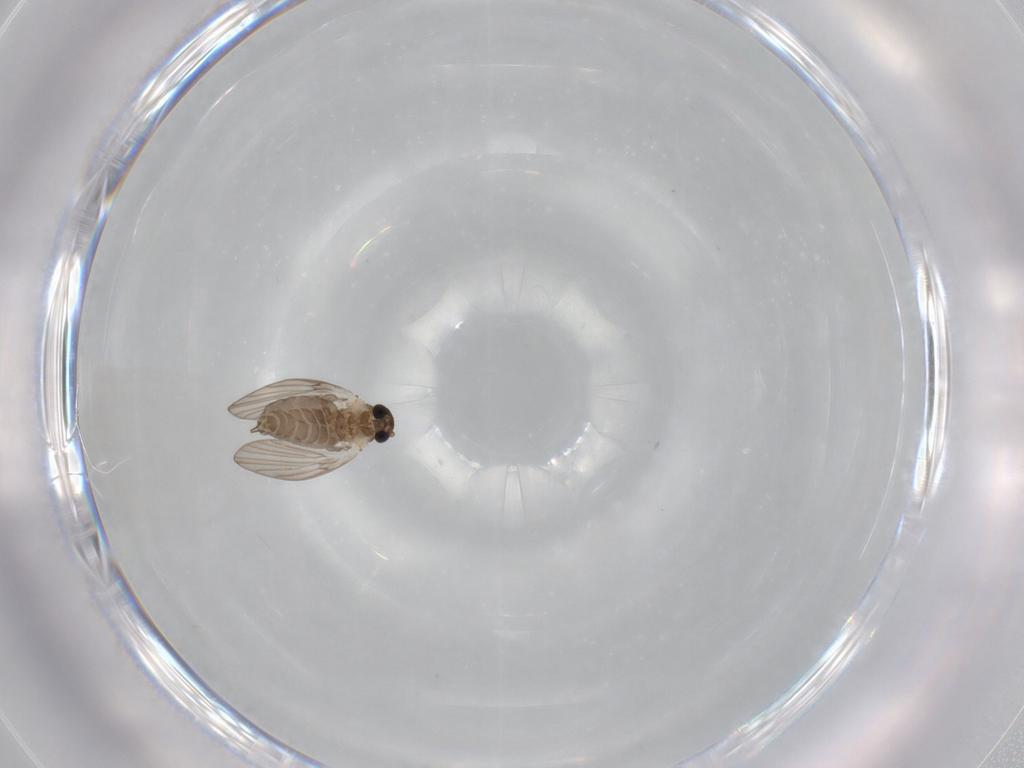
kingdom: Animalia
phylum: Arthropoda
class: Insecta
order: Diptera
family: Psychodidae
